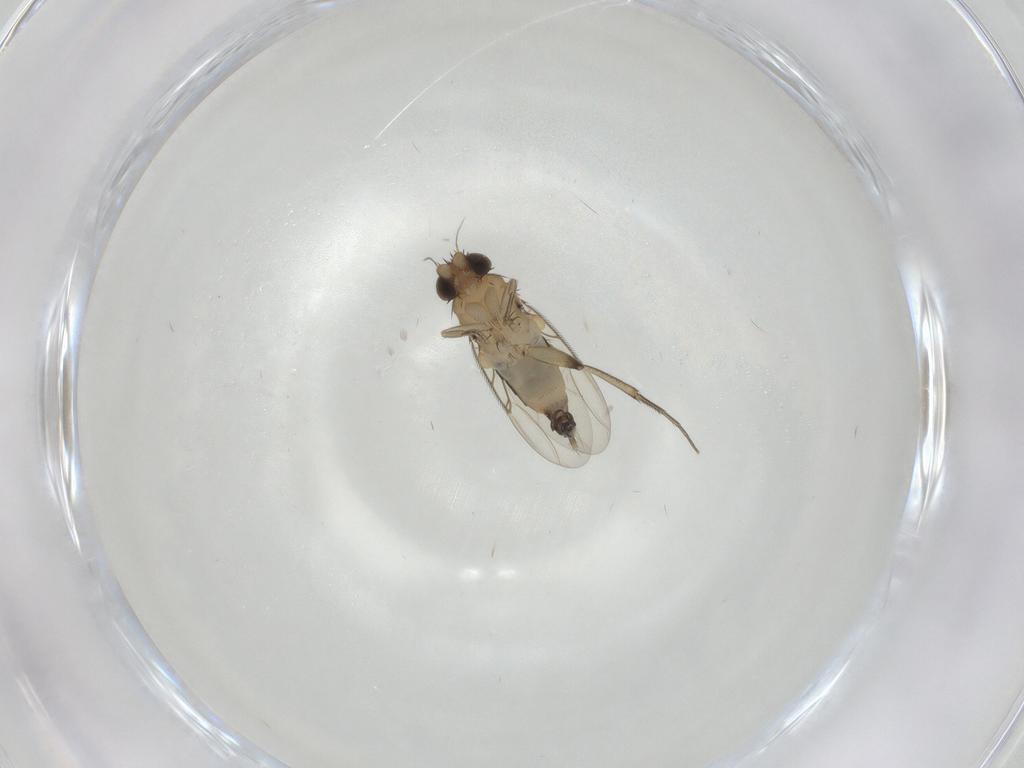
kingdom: Animalia
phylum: Arthropoda
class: Insecta
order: Diptera
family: Phoridae
